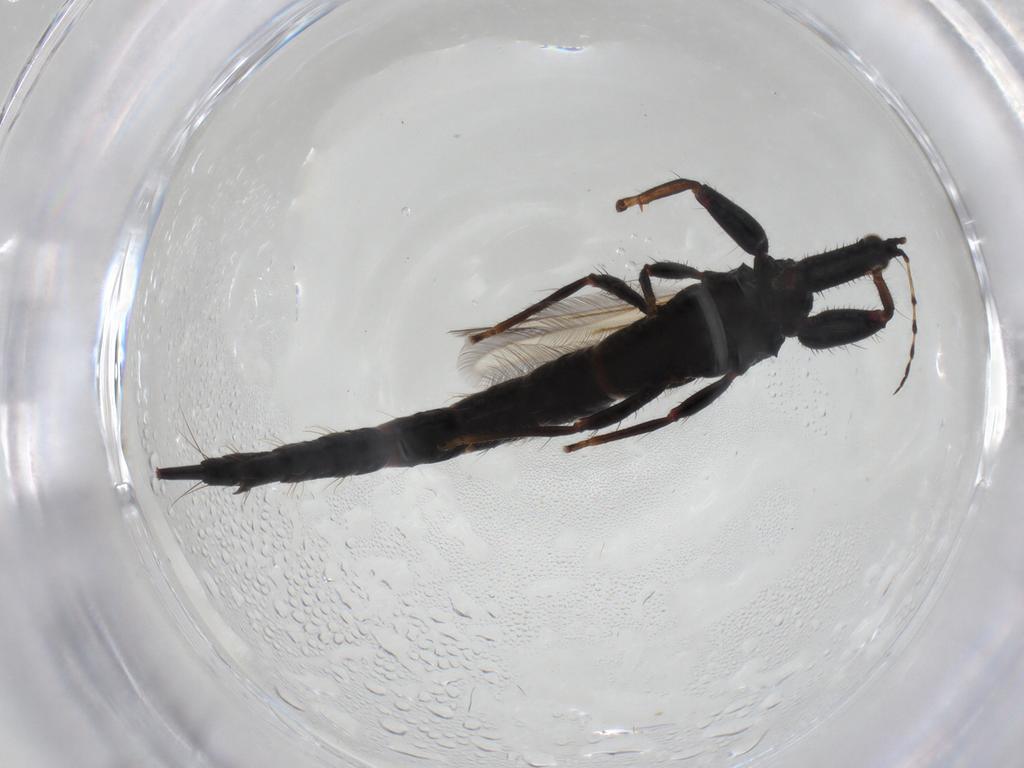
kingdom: Animalia
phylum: Arthropoda
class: Insecta
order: Thysanoptera
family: Phlaeothripidae
